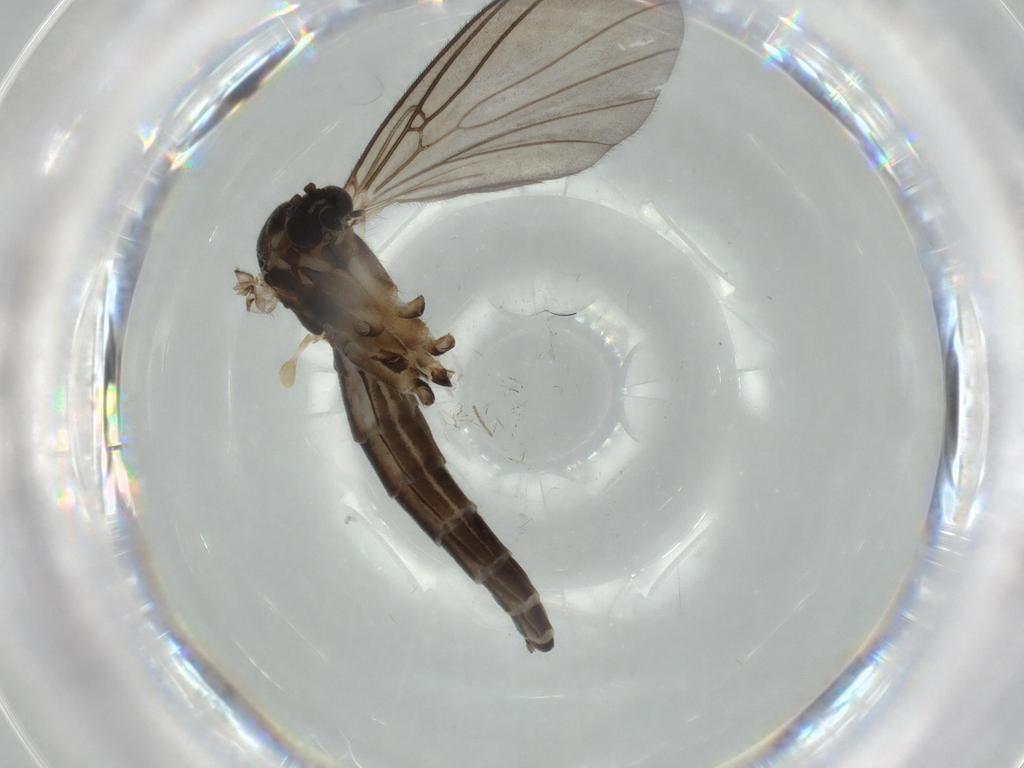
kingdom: Animalia
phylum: Arthropoda
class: Insecta
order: Diptera
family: Mycetophilidae
